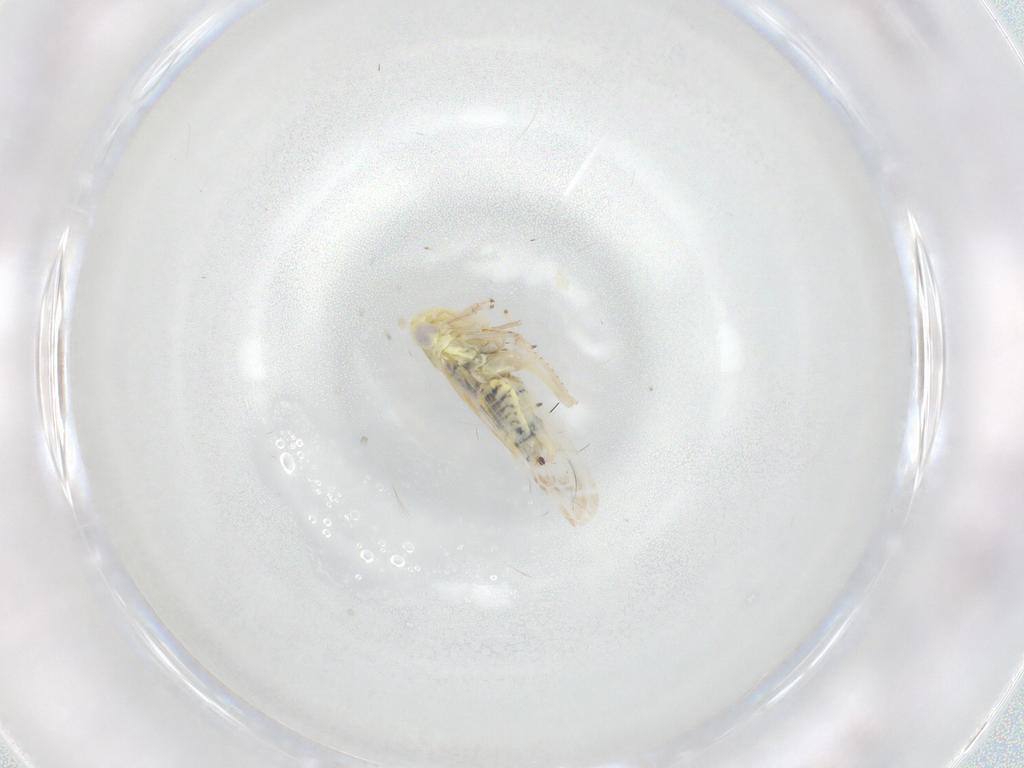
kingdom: Animalia
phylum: Arthropoda
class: Insecta
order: Hemiptera
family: Cicadellidae
